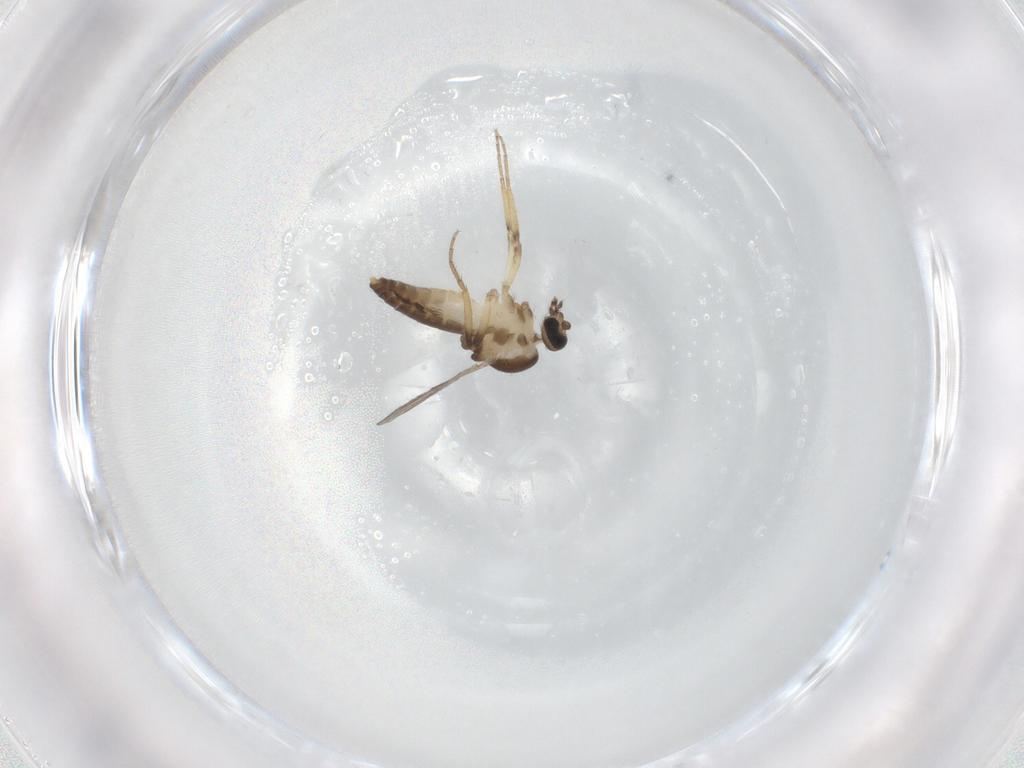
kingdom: Animalia
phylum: Arthropoda
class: Insecta
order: Diptera
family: Ceratopogonidae
